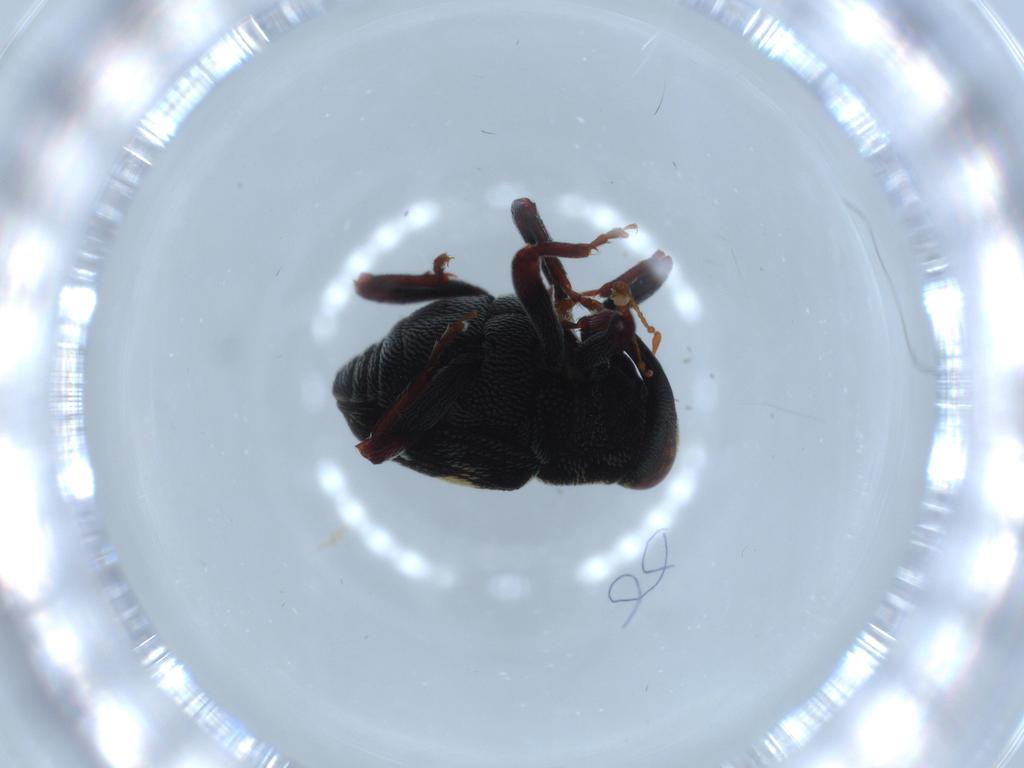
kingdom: Animalia
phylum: Arthropoda
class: Insecta
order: Coleoptera
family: Curculionidae
